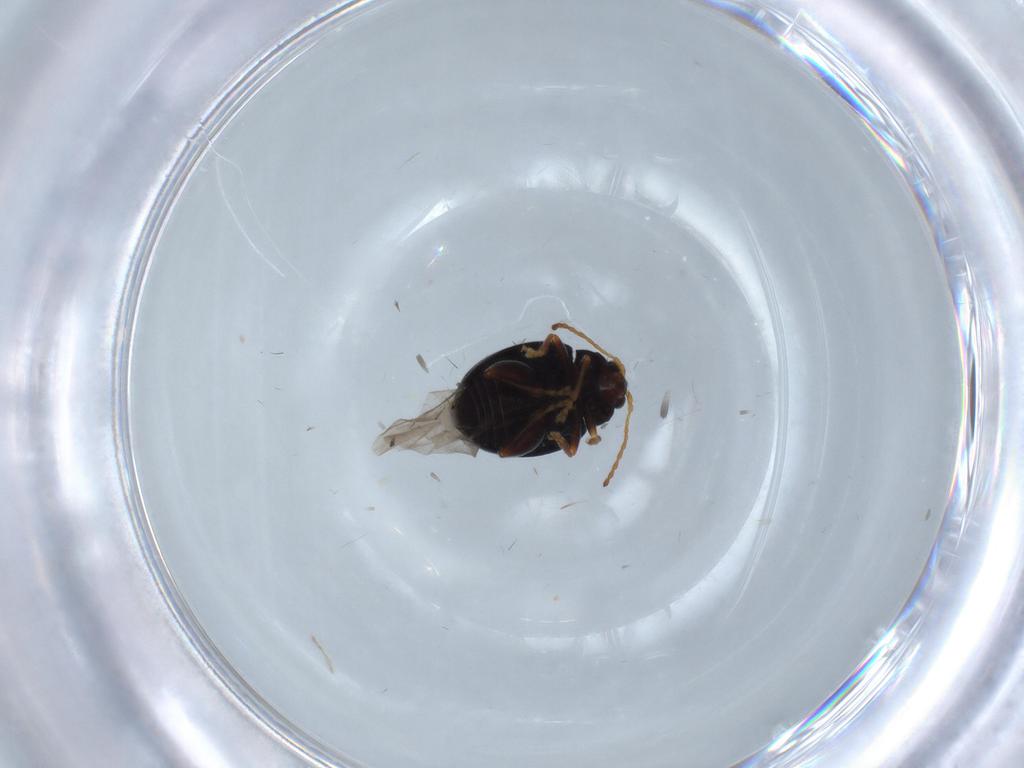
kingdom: Animalia
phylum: Arthropoda
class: Insecta
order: Coleoptera
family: Chrysomelidae
